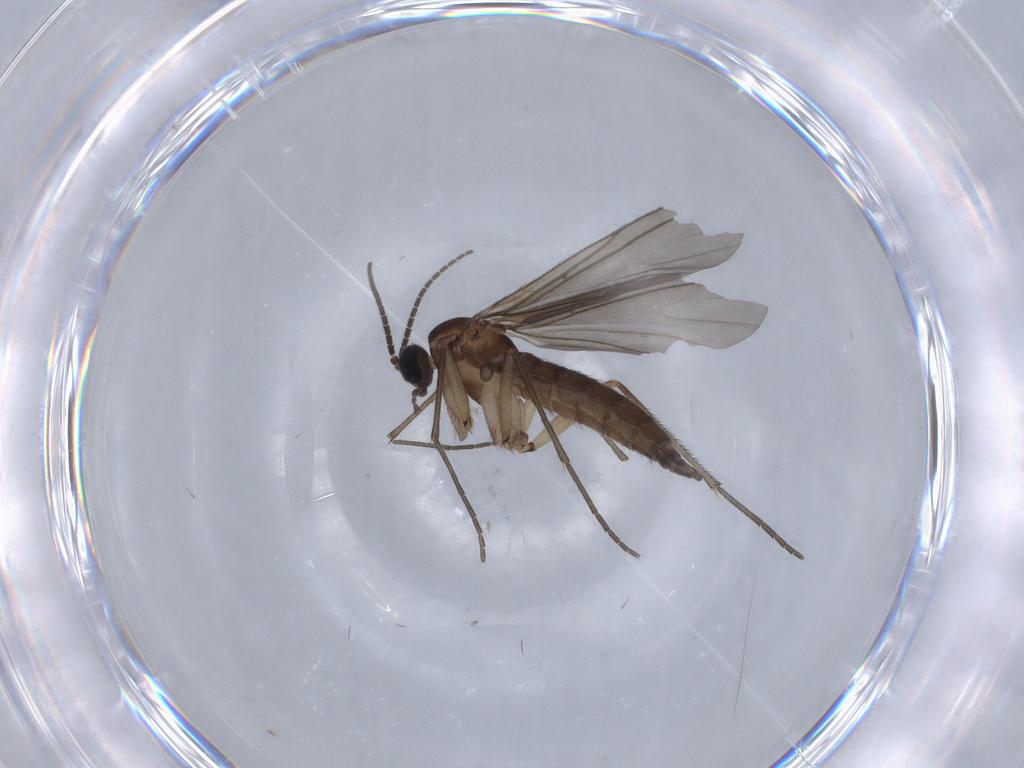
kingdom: Animalia
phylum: Arthropoda
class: Insecta
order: Diptera
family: Sciaridae
